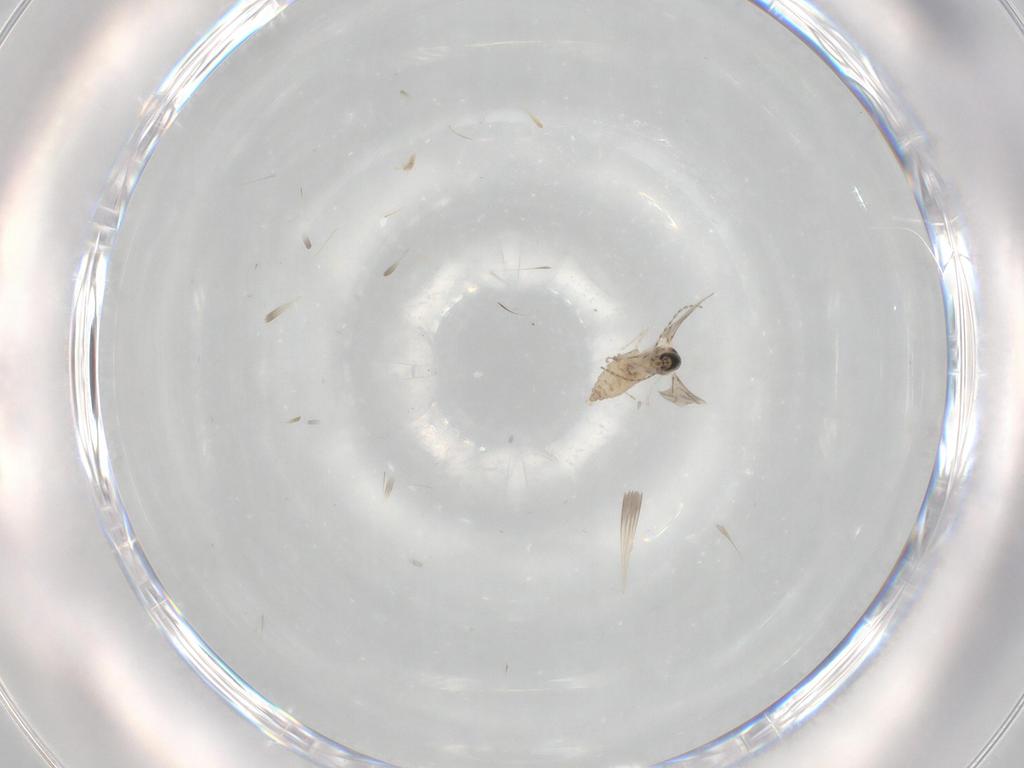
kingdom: Animalia
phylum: Arthropoda
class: Insecta
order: Diptera
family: Cecidomyiidae
